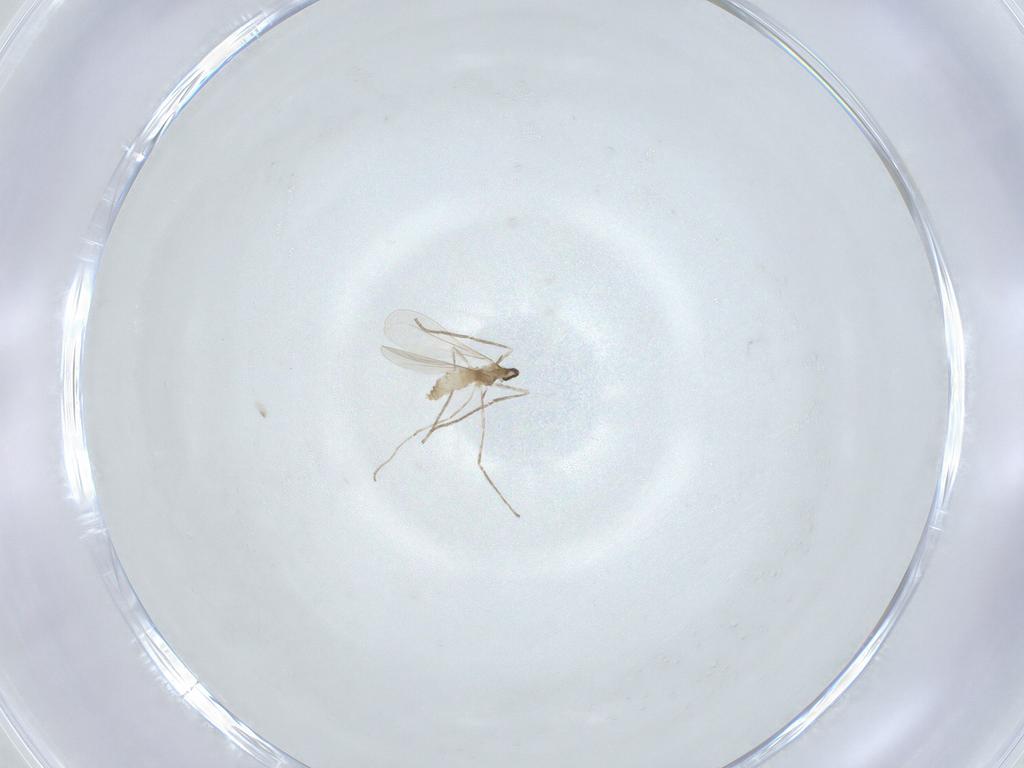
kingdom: Animalia
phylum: Arthropoda
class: Insecta
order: Diptera
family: Cecidomyiidae
